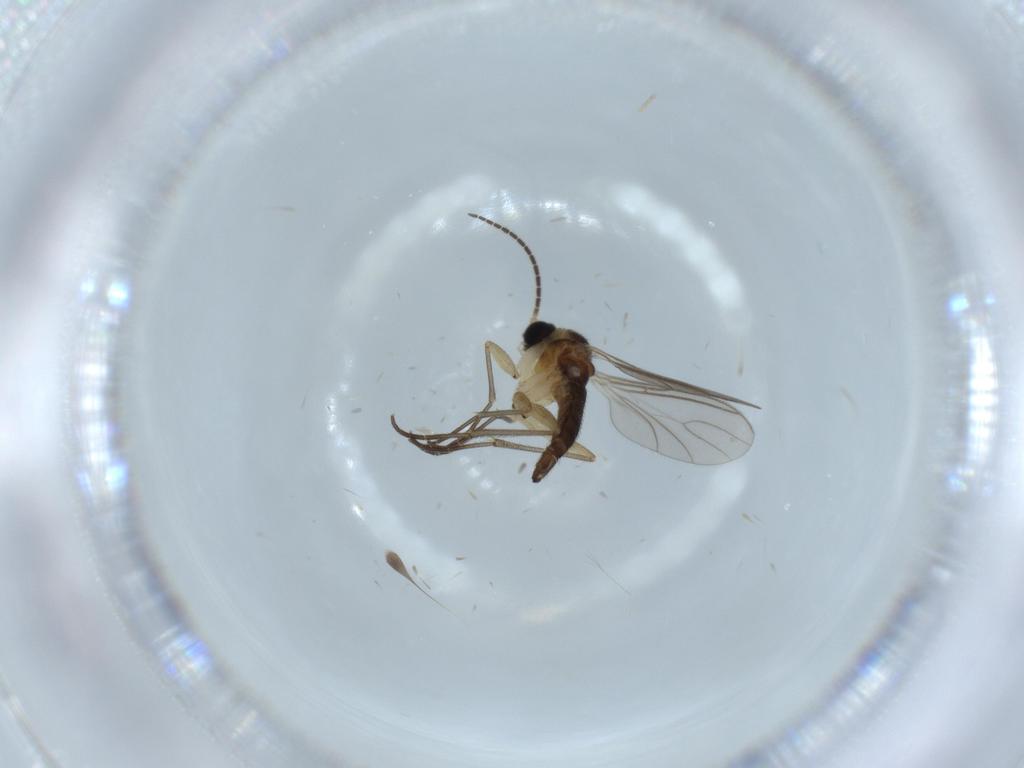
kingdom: Animalia
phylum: Arthropoda
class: Insecta
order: Diptera
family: Sciaridae
